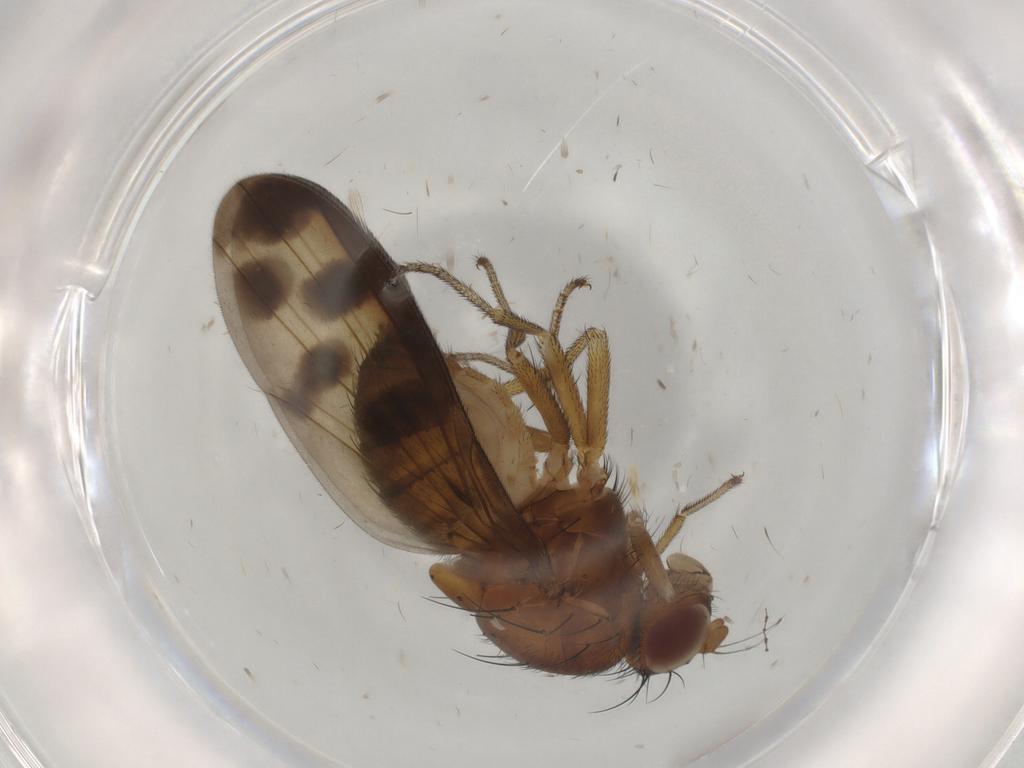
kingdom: Animalia
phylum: Arthropoda
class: Insecta
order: Diptera
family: Cecidomyiidae
